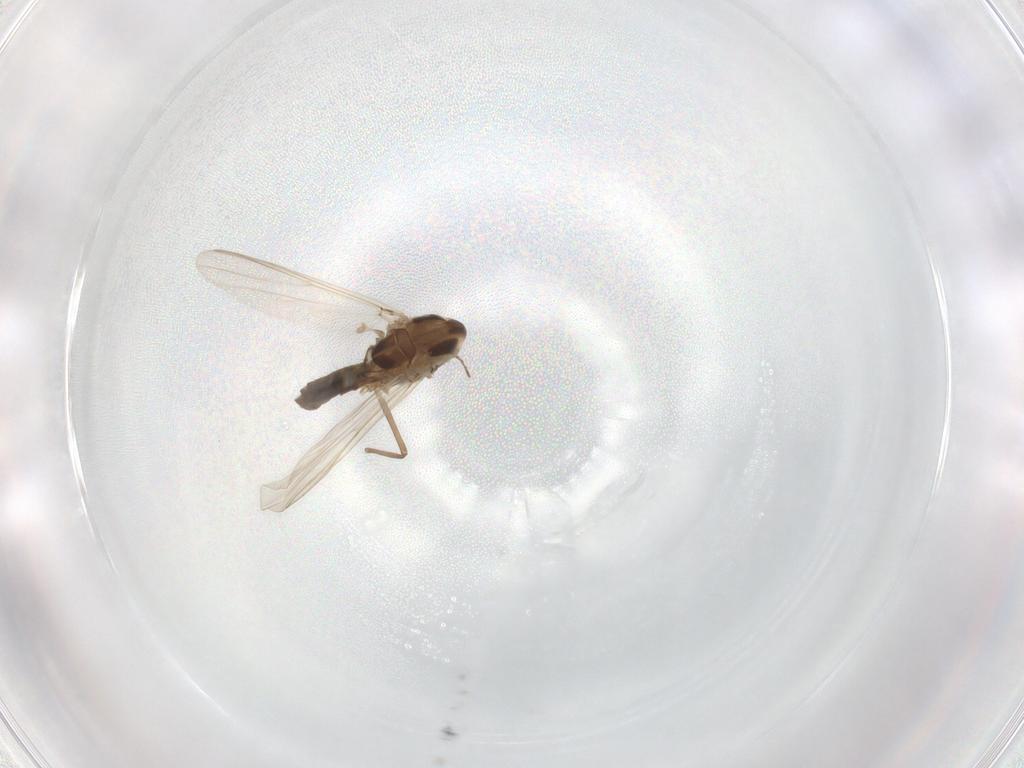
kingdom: Animalia
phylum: Arthropoda
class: Insecta
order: Diptera
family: Chironomidae
